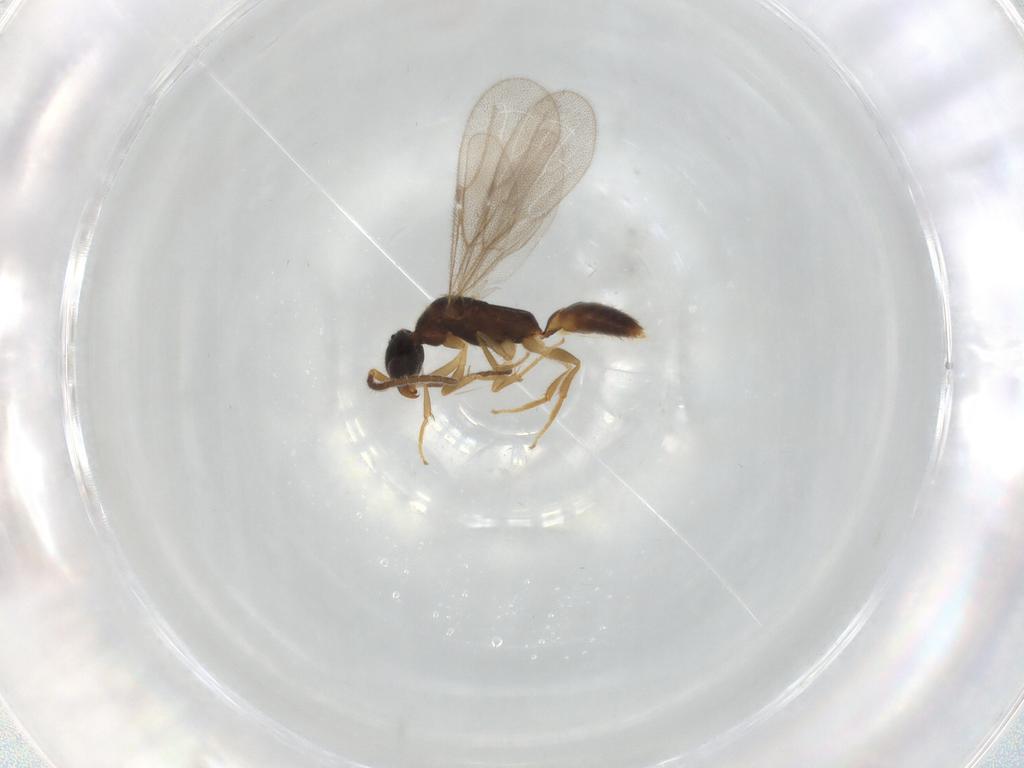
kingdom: Animalia
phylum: Arthropoda
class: Insecta
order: Hymenoptera
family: Bethylidae
